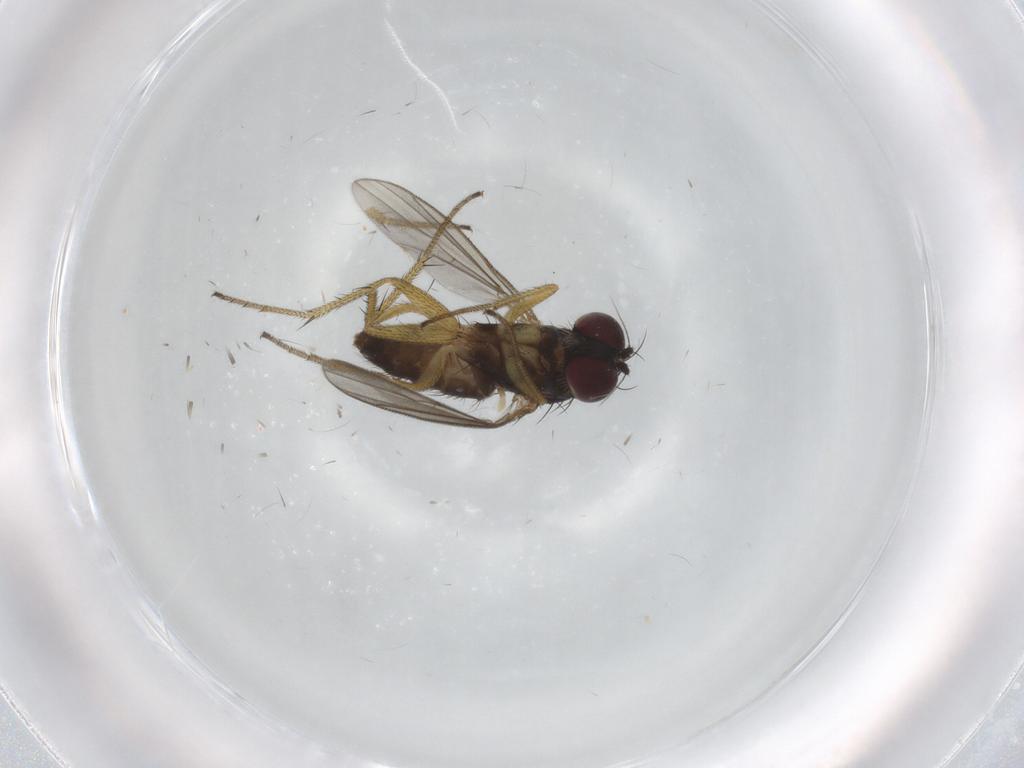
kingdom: Animalia
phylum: Arthropoda
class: Insecta
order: Diptera
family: Dolichopodidae
